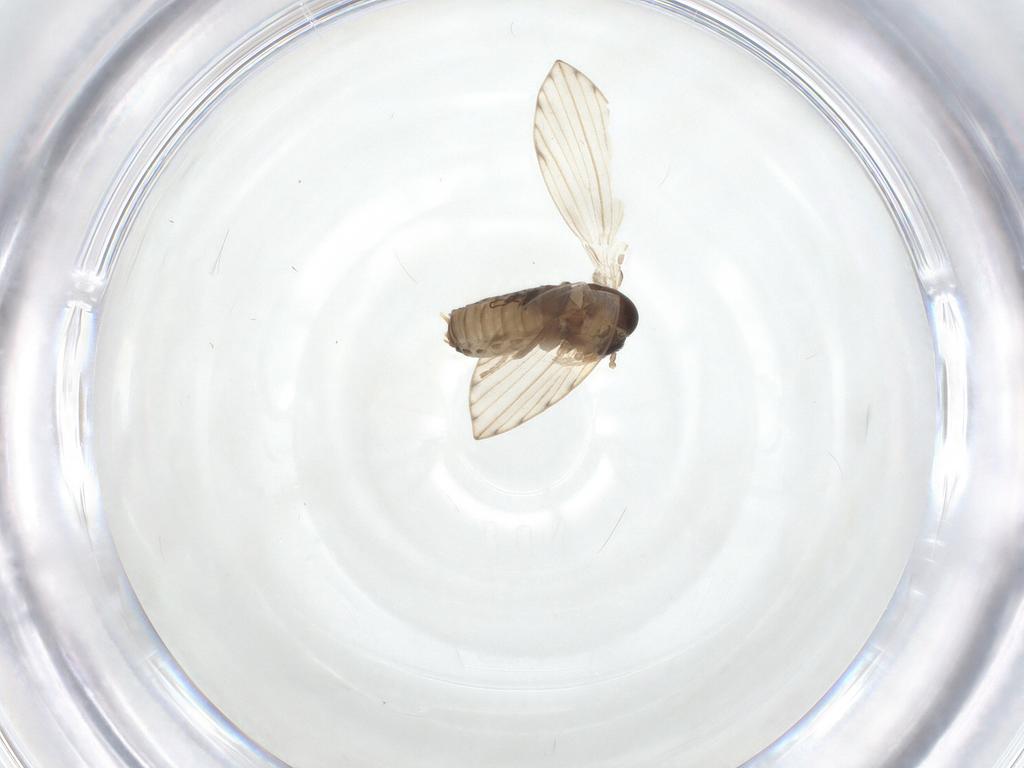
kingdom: Animalia
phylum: Arthropoda
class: Insecta
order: Diptera
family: Psychodidae
